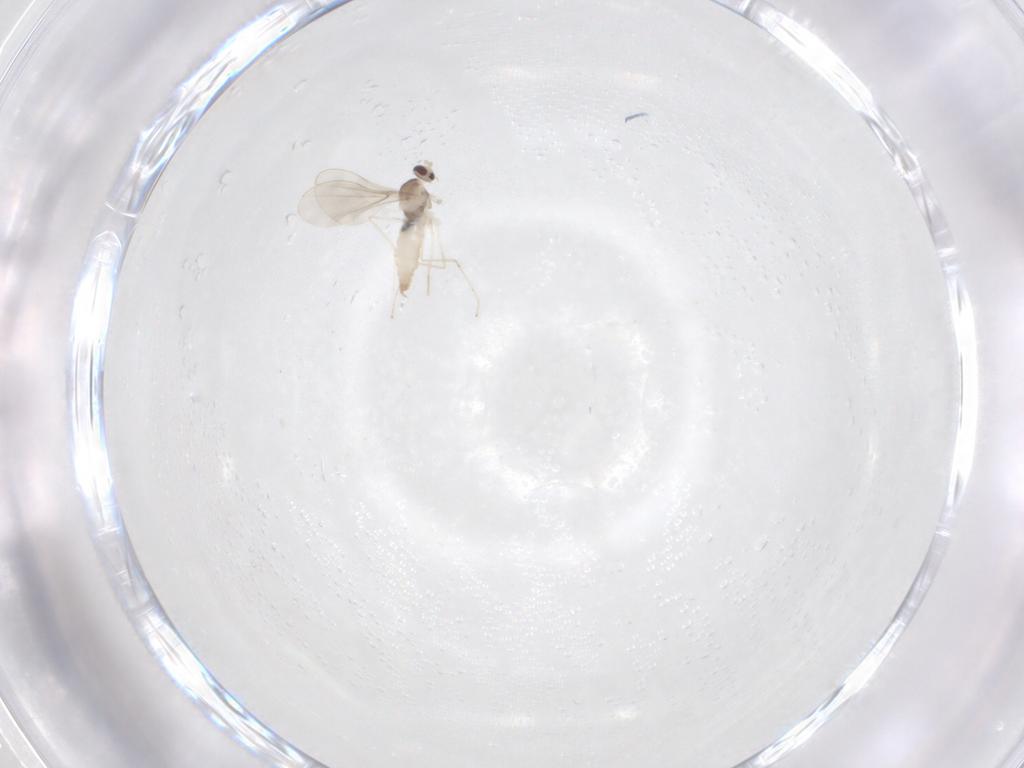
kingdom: Animalia
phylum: Arthropoda
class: Insecta
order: Diptera
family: Cecidomyiidae
